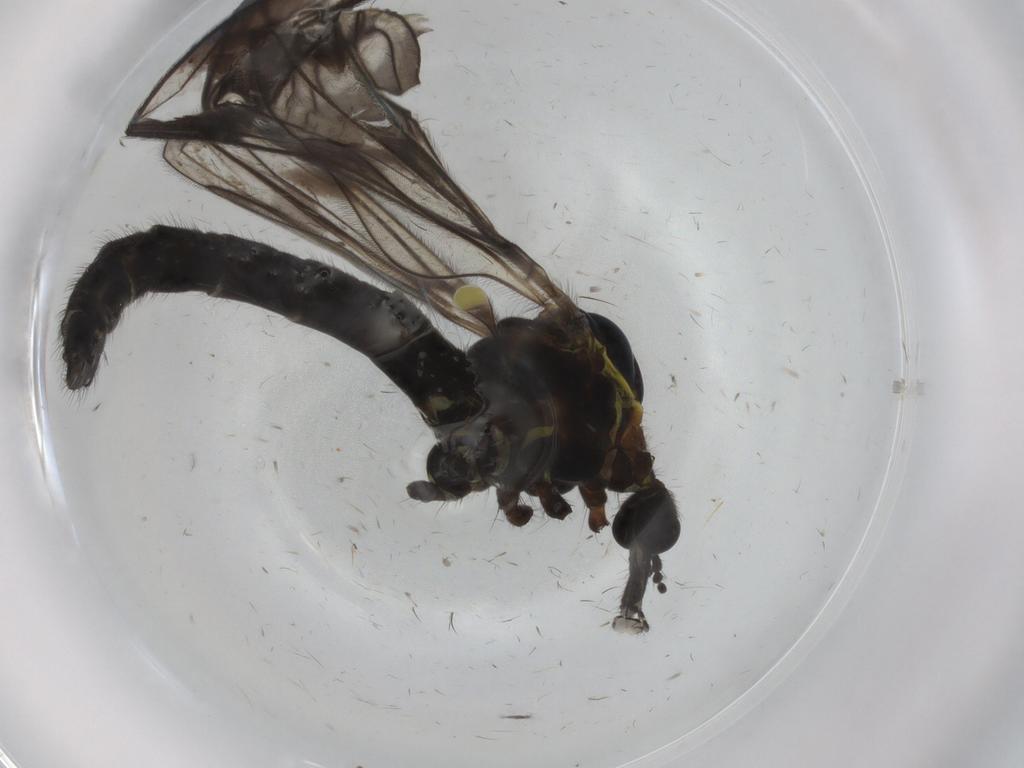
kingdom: Animalia
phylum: Arthropoda
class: Insecta
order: Diptera
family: Limoniidae
